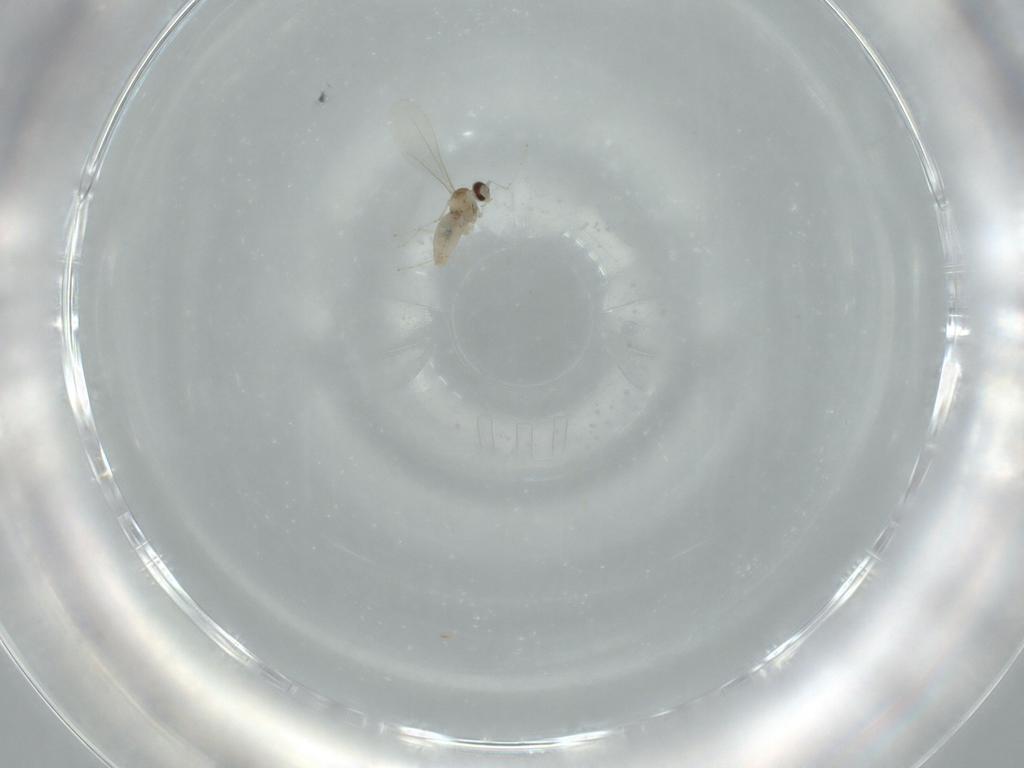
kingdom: Animalia
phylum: Arthropoda
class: Insecta
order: Diptera
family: Cecidomyiidae
